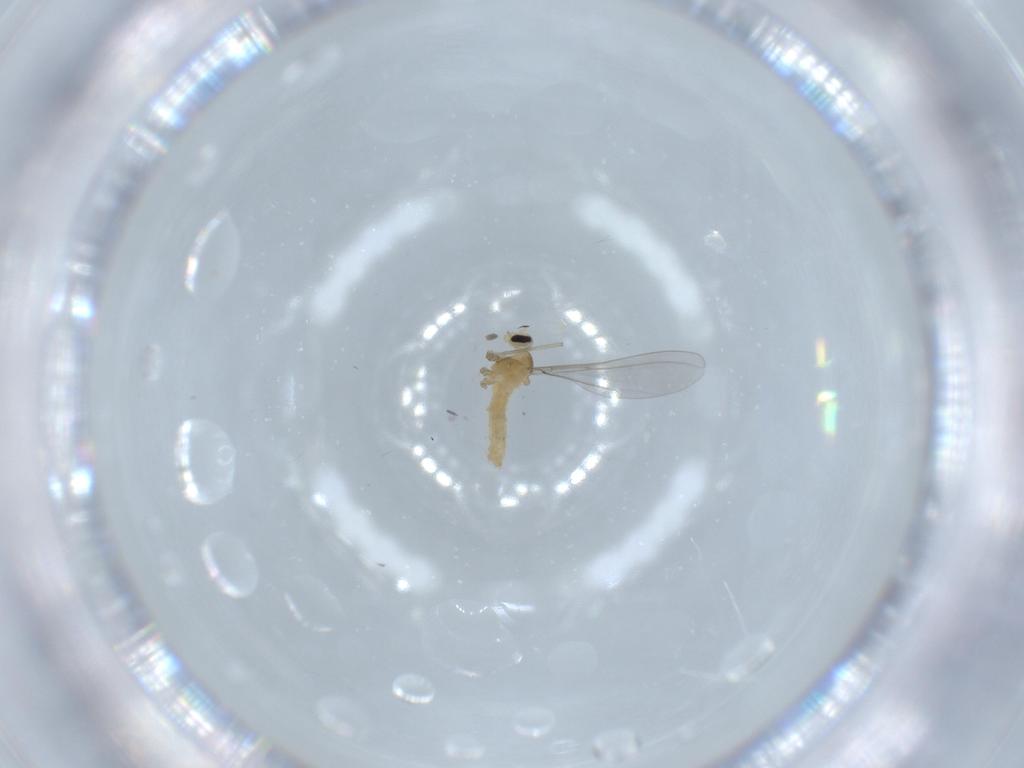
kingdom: Animalia
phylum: Arthropoda
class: Insecta
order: Diptera
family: Cecidomyiidae
